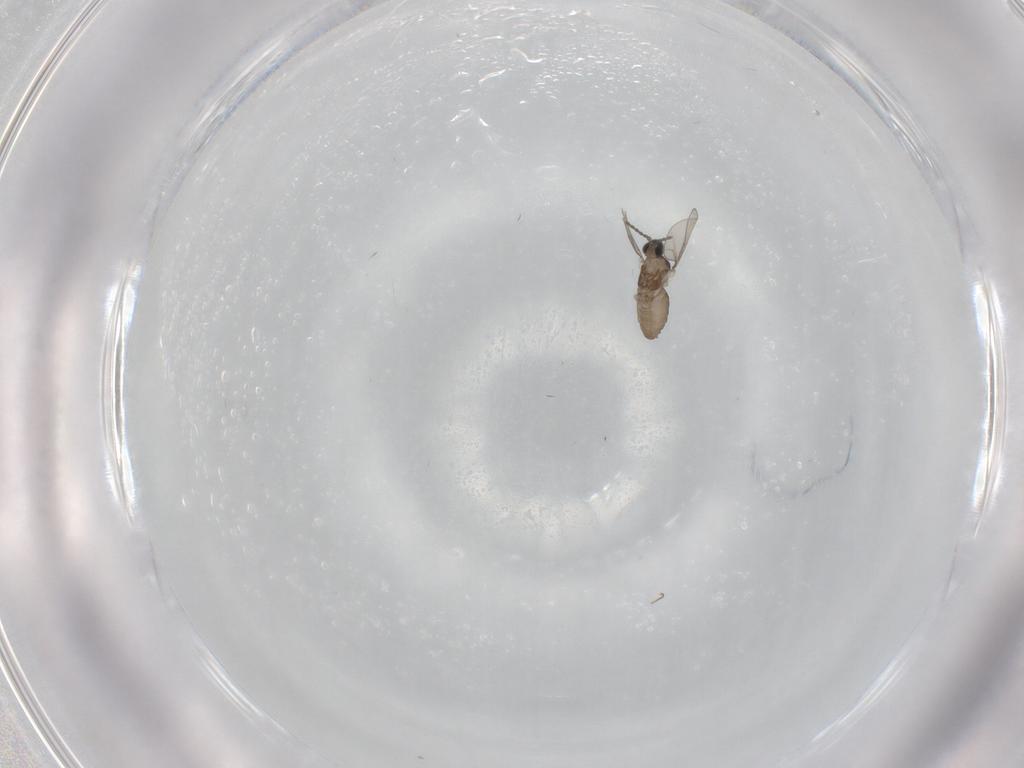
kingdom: Animalia
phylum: Arthropoda
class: Insecta
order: Diptera
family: Cecidomyiidae
